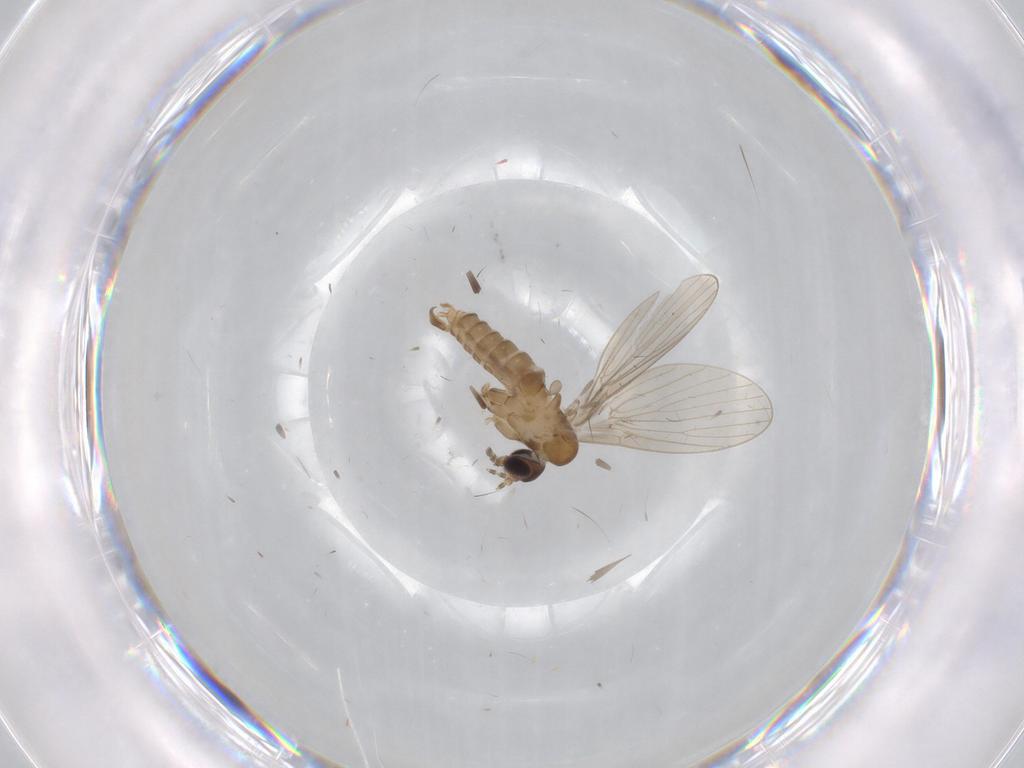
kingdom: Animalia
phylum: Arthropoda
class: Insecta
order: Diptera
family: Psychodidae
